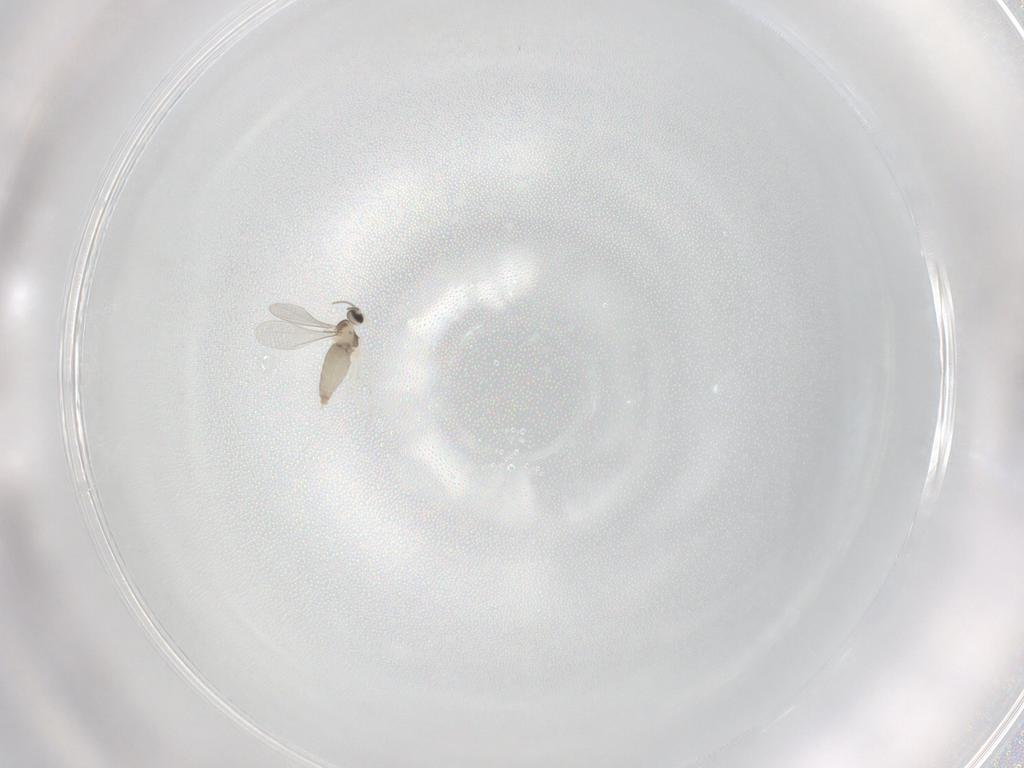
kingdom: Animalia
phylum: Arthropoda
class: Insecta
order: Diptera
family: Cecidomyiidae
